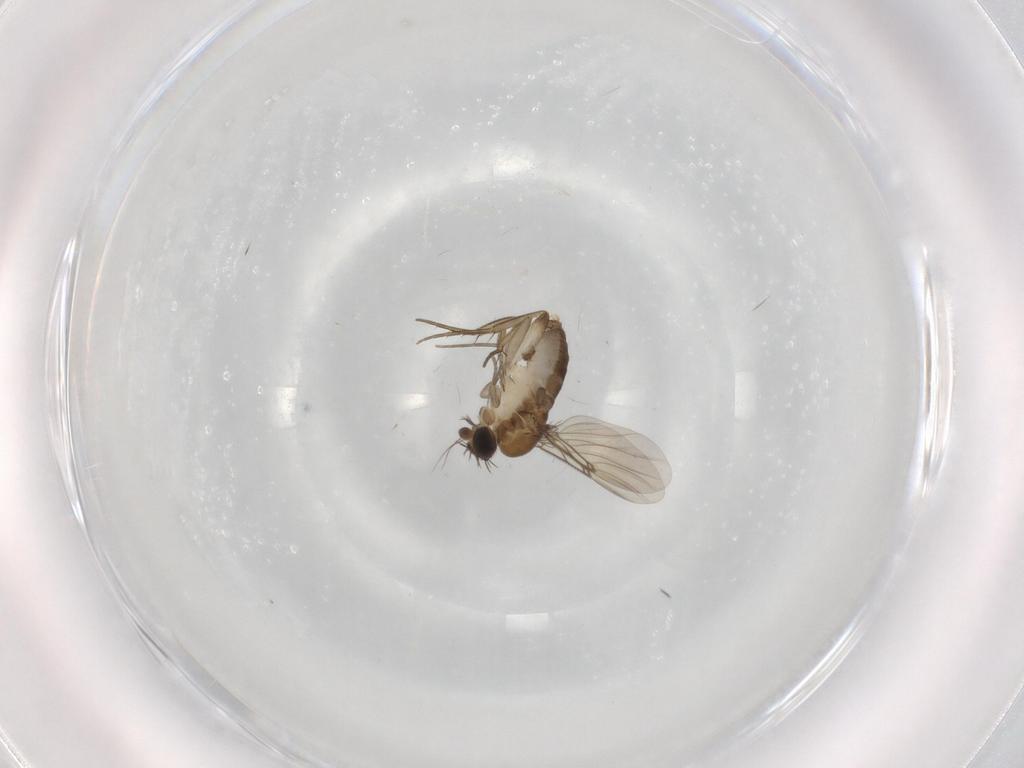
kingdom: Animalia
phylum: Arthropoda
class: Insecta
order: Diptera
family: Phoridae
